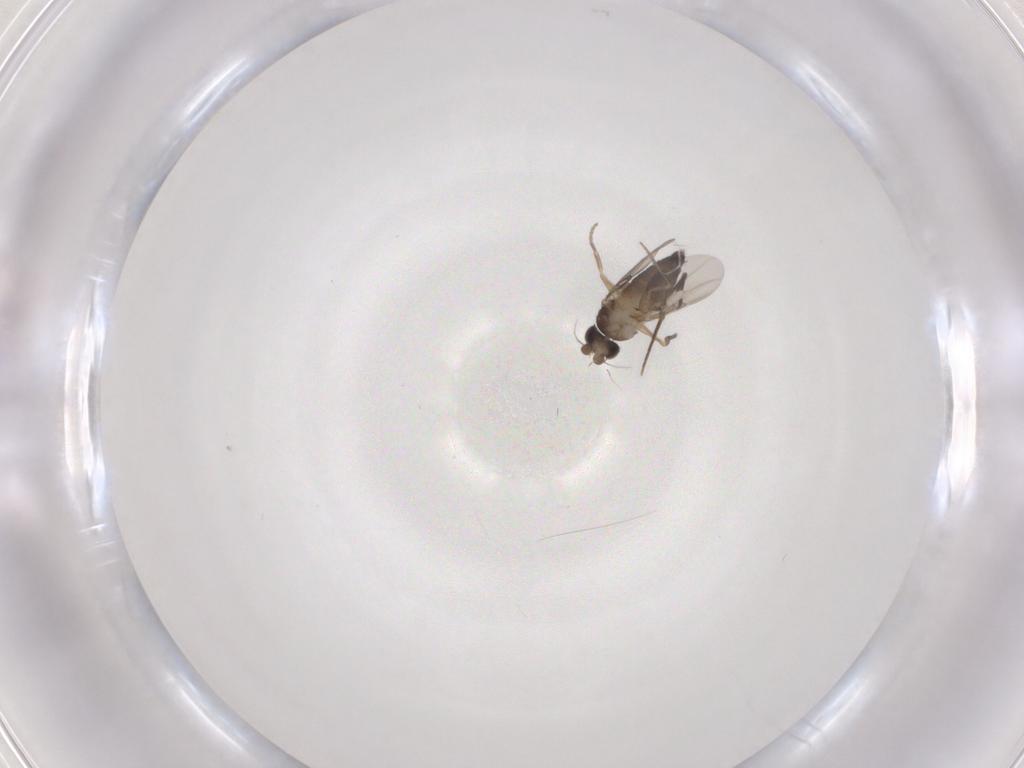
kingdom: Animalia
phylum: Arthropoda
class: Insecta
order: Diptera
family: Phoridae
